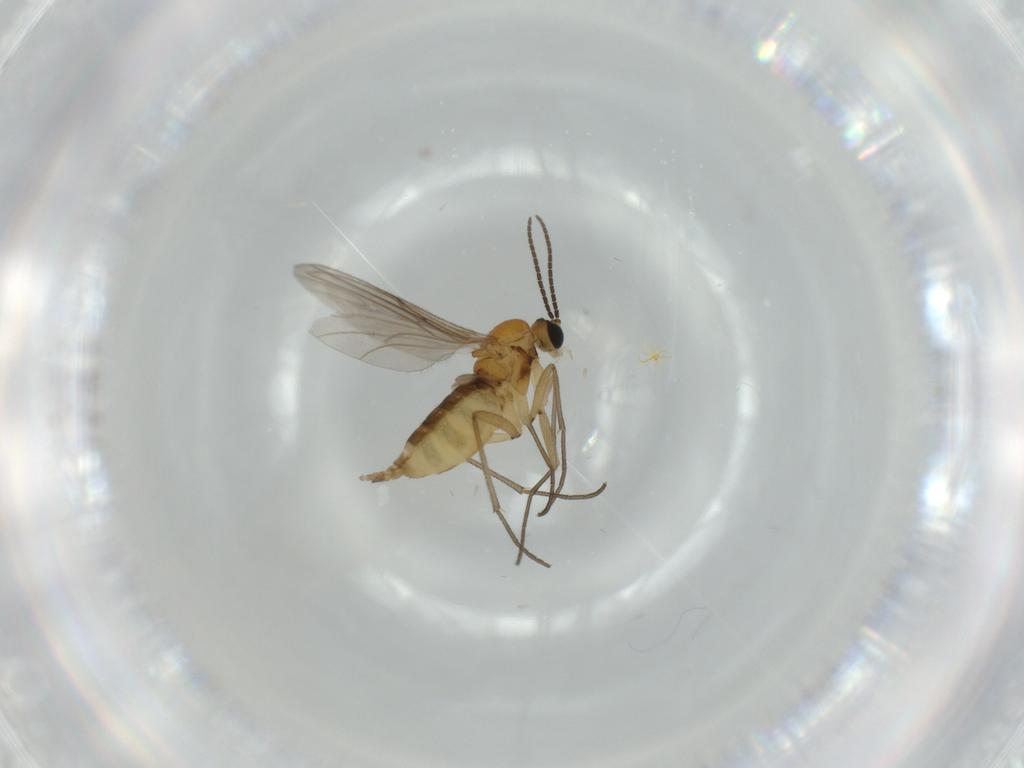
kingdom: Animalia
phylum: Arthropoda
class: Insecta
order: Diptera
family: Sciaridae
